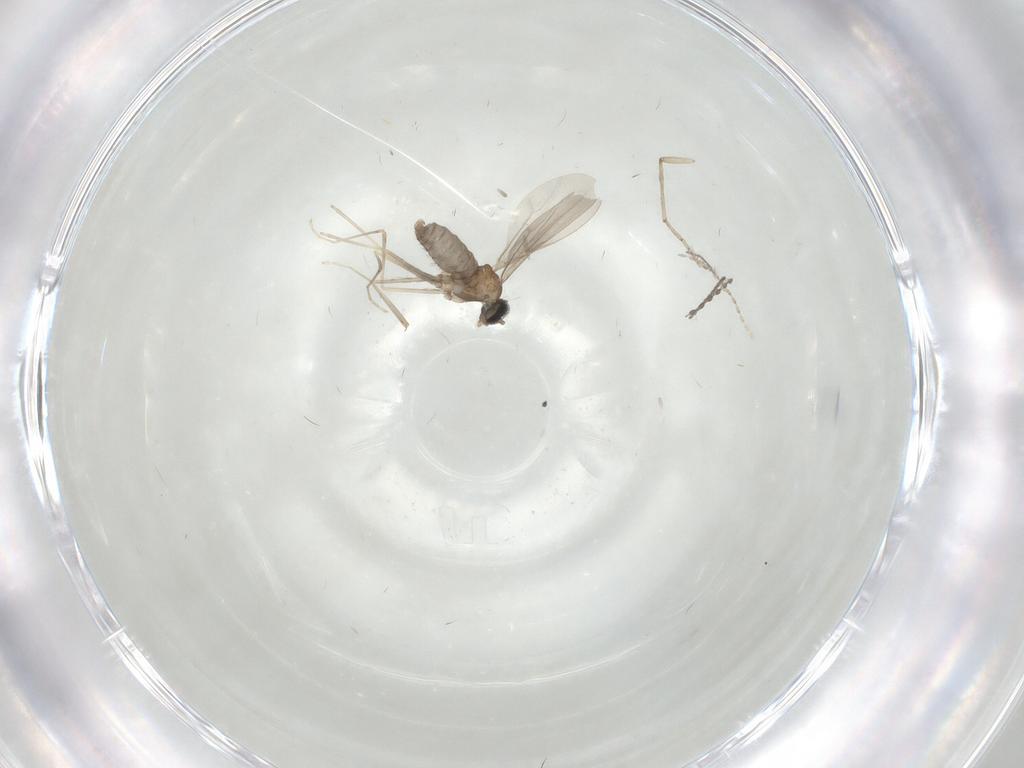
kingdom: Animalia
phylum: Arthropoda
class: Insecta
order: Diptera
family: Cecidomyiidae
